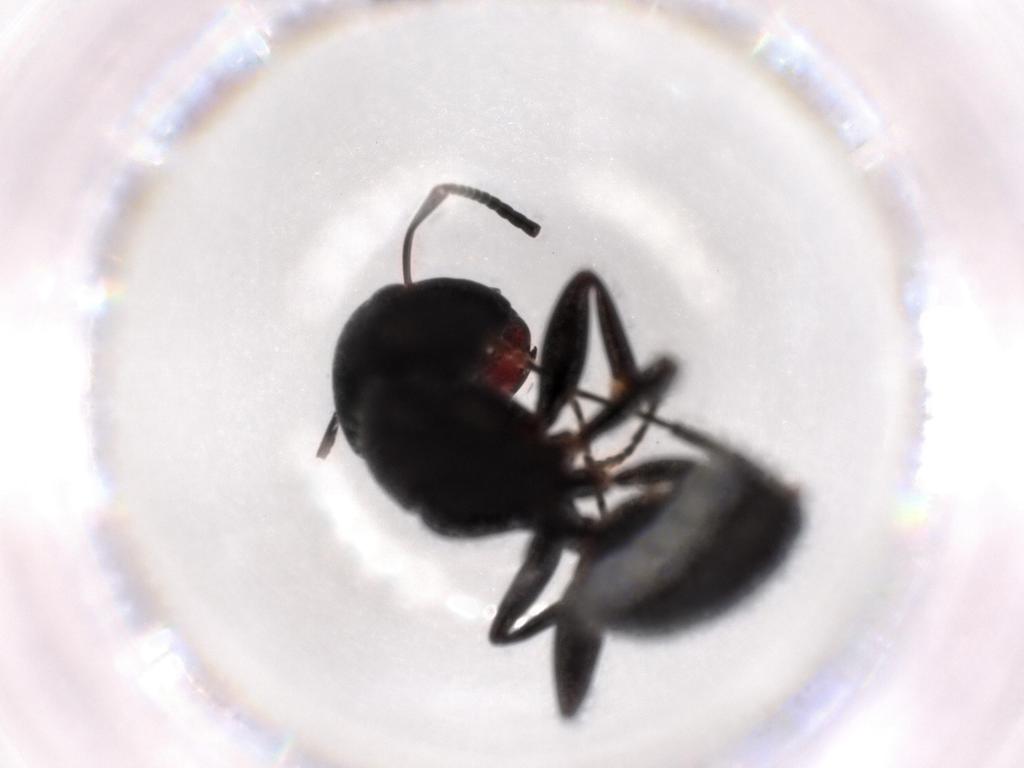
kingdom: Animalia
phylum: Arthropoda
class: Insecta
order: Hymenoptera
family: Formicidae
